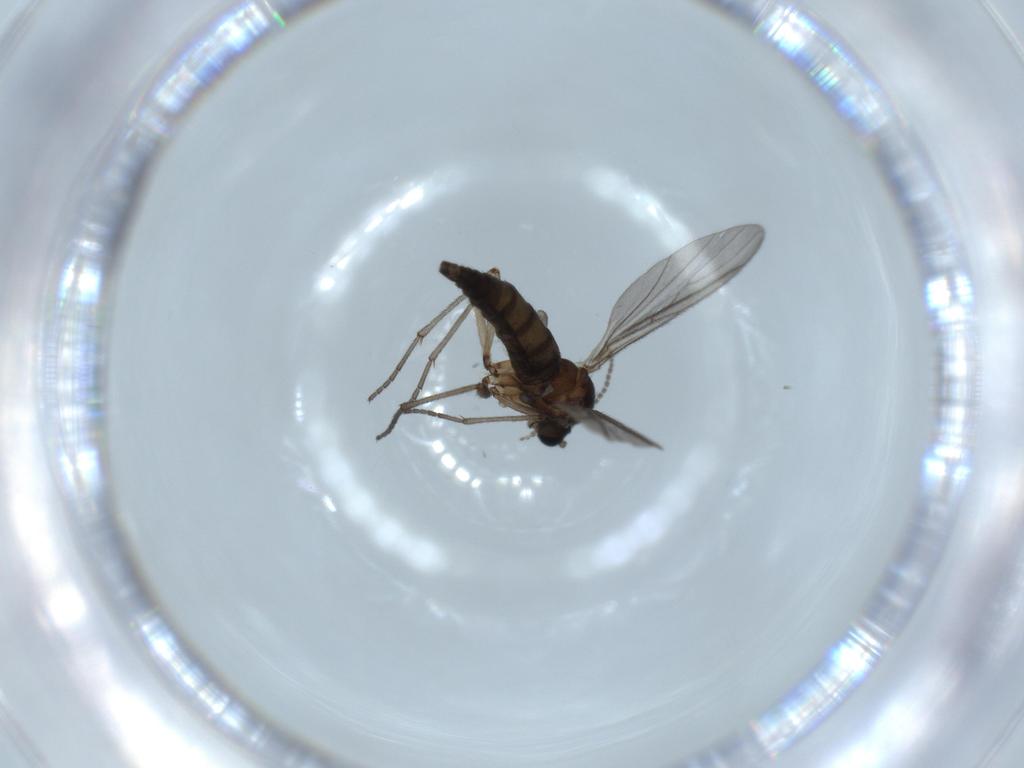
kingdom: Animalia
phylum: Arthropoda
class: Insecta
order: Diptera
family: Sciaridae
